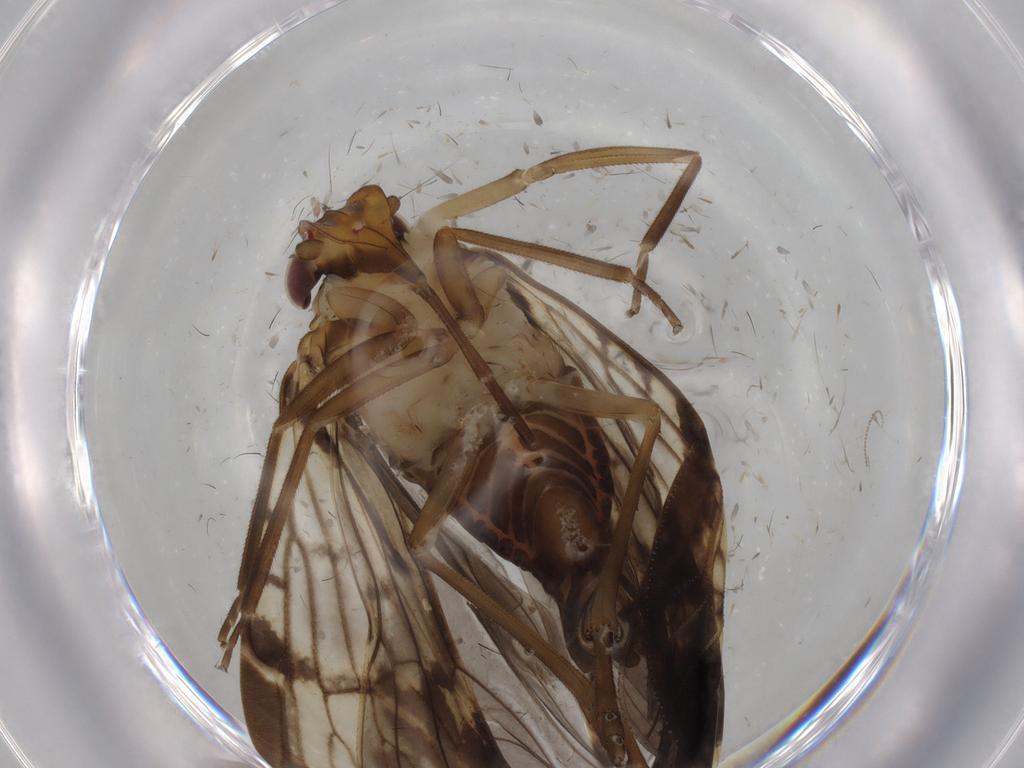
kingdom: Animalia
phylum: Arthropoda
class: Insecta
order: Hemiptera
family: Cixiidae
